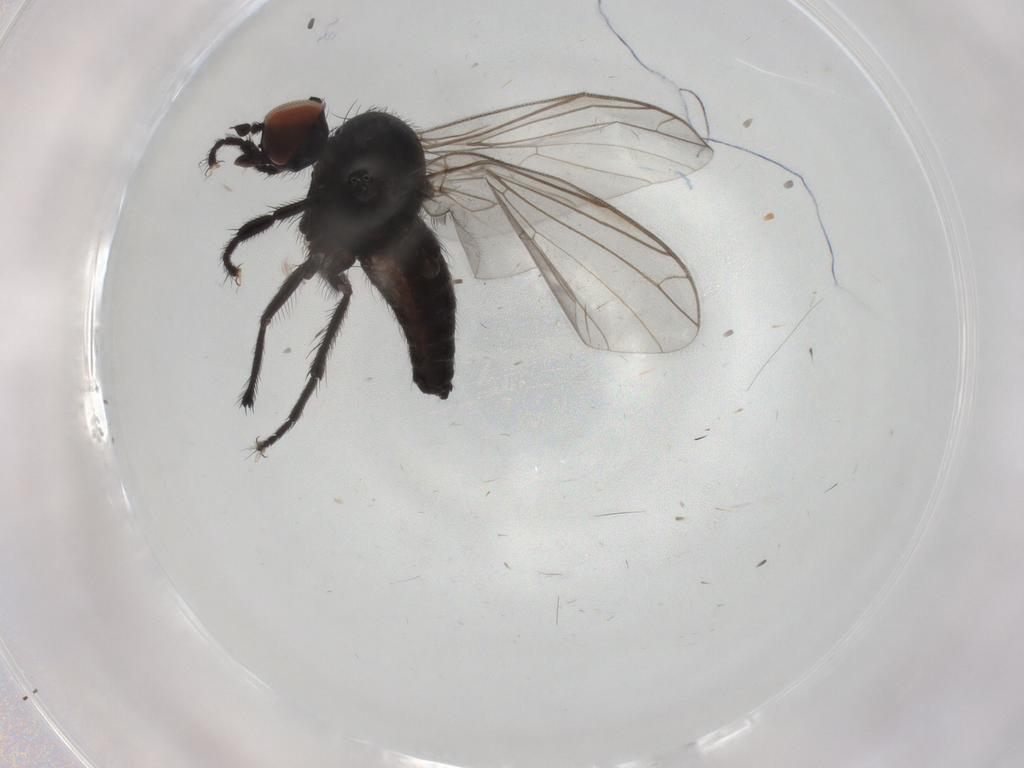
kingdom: Animalia
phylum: Arthropoda
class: Insecta
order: Diptera
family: Empididae
